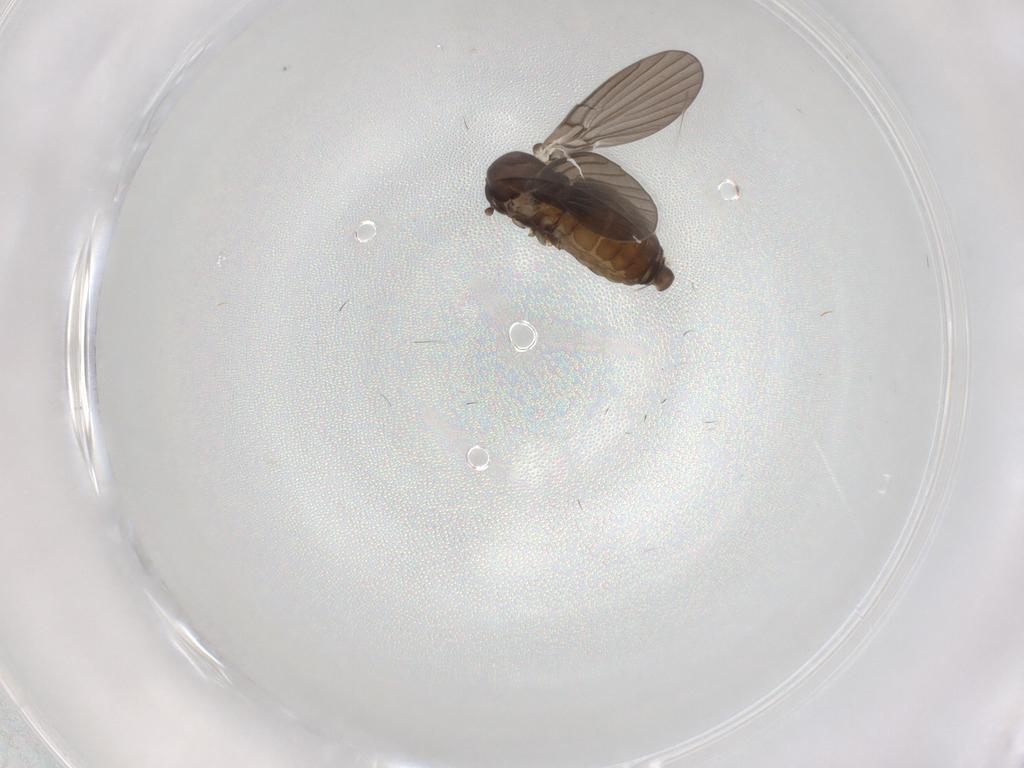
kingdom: Animalia
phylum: Arthropoda
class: Insecta
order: Diptera
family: Psychodidae
